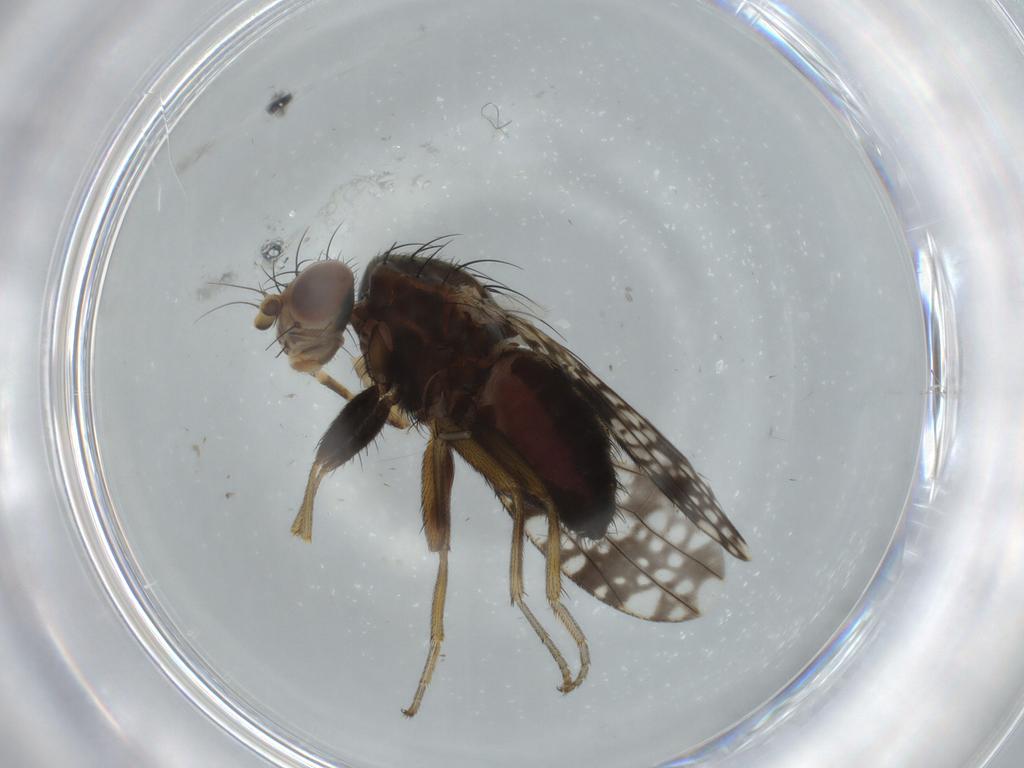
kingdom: Animalia
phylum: Arthropoda
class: Insecta
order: Diptera
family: Tephritidae
